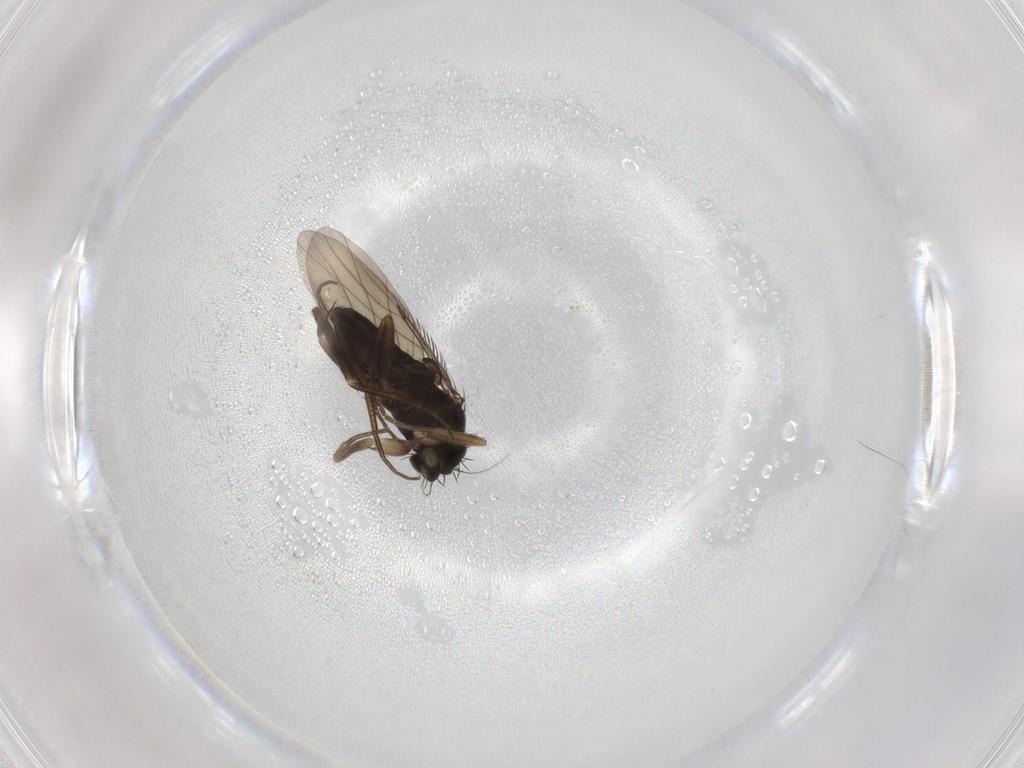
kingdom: Animalia
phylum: Arthropoda
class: Insecta
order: Diptera
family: Phoridae
